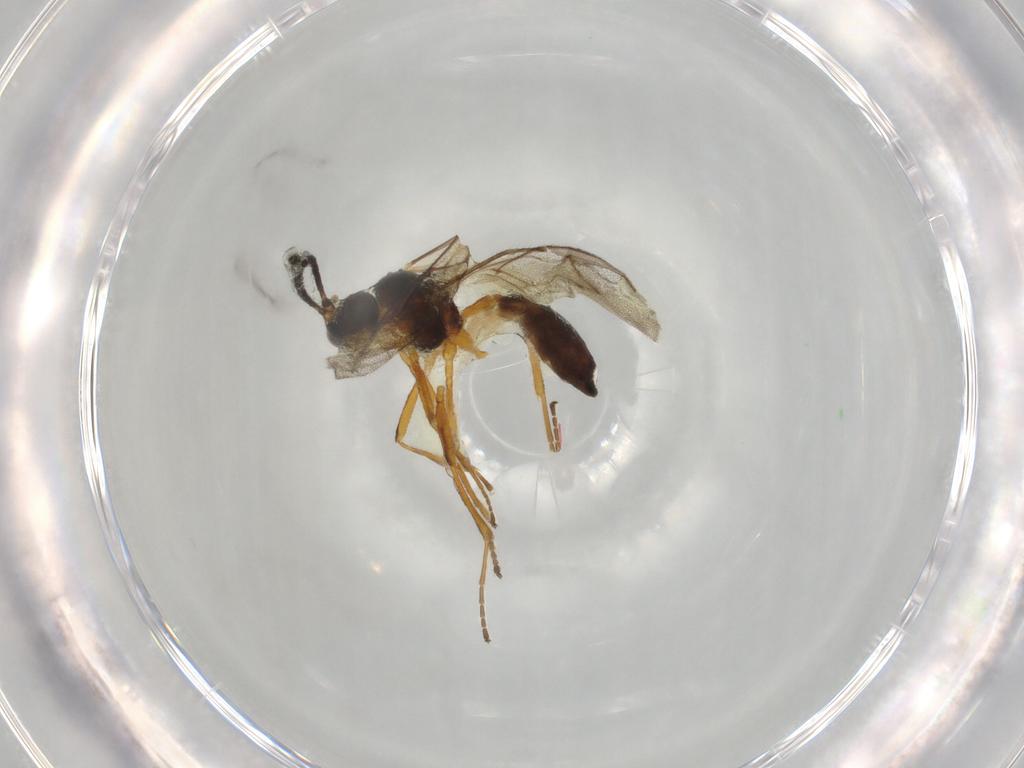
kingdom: Animalia
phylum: Arthropoda
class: Insecta
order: Hymenoptera
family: Braconidae
